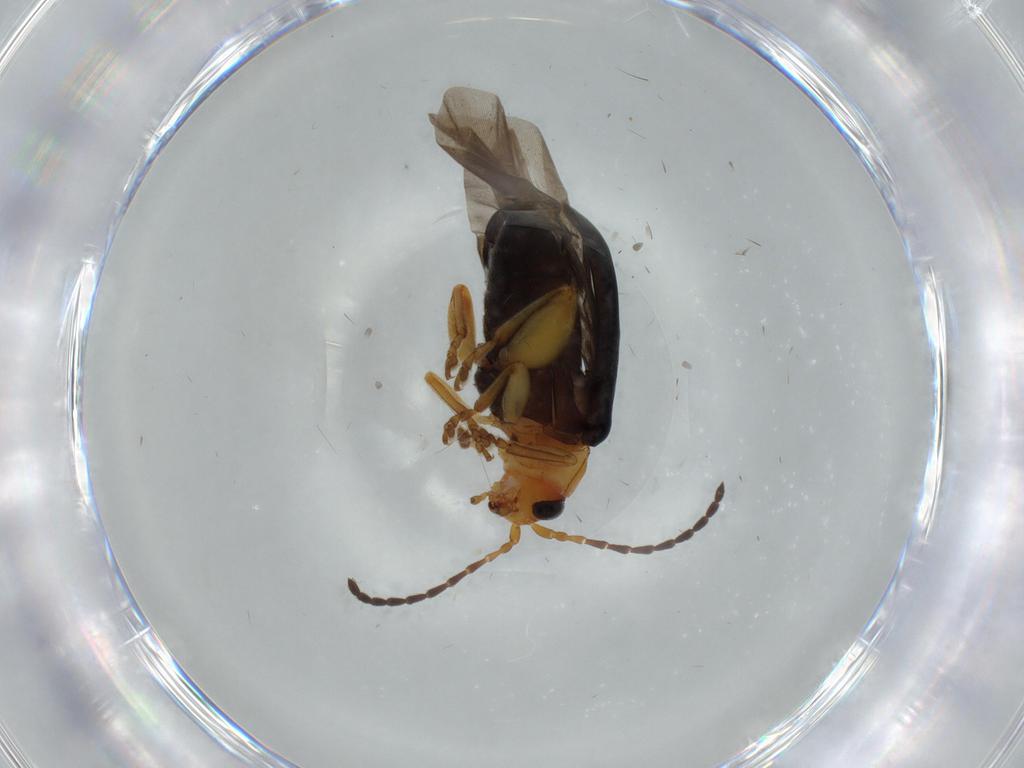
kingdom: Animalia
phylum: Arthropoda
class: Insecta
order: Coleoptera
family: Chrysomelidae
